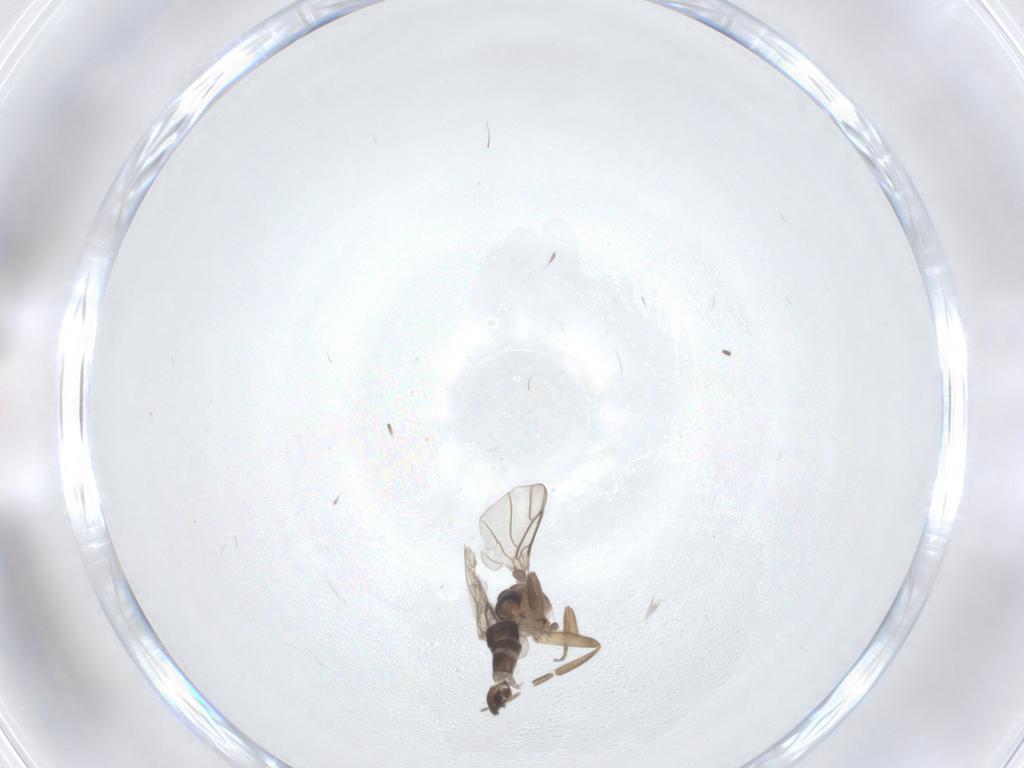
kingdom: Animalia
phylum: Arthropoda
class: Insecta
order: Diptera
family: Ceratopogonidae
